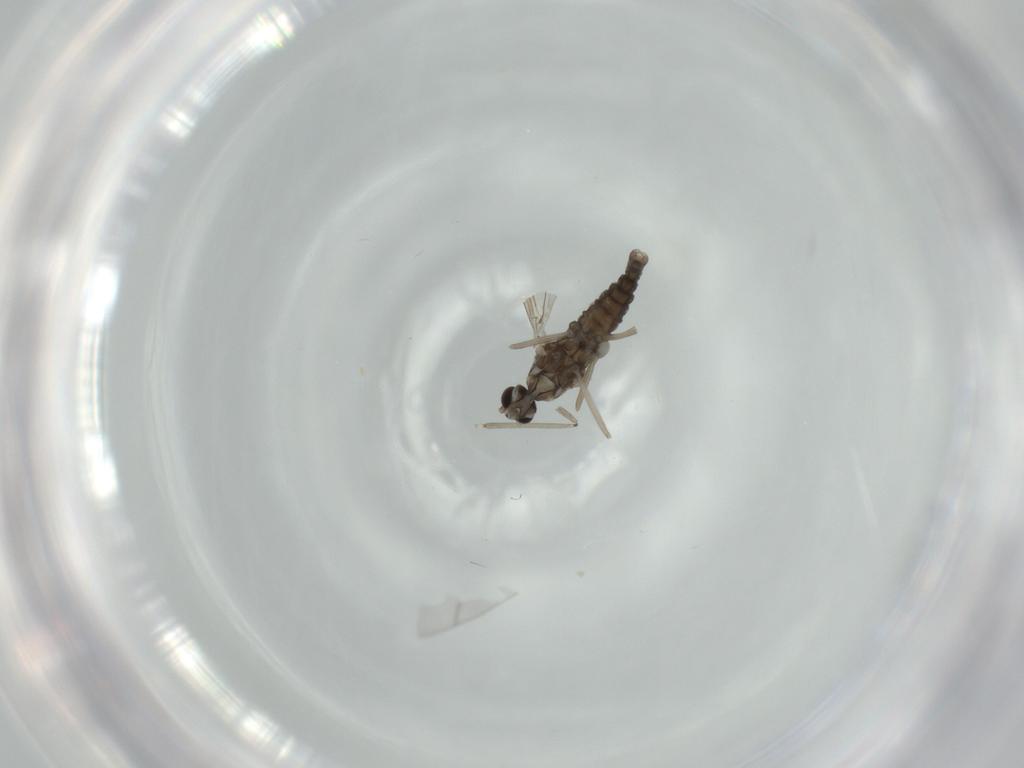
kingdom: Animalia
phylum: Arthropoda
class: Insecta
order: Diptera
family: Cecidomyiidae
